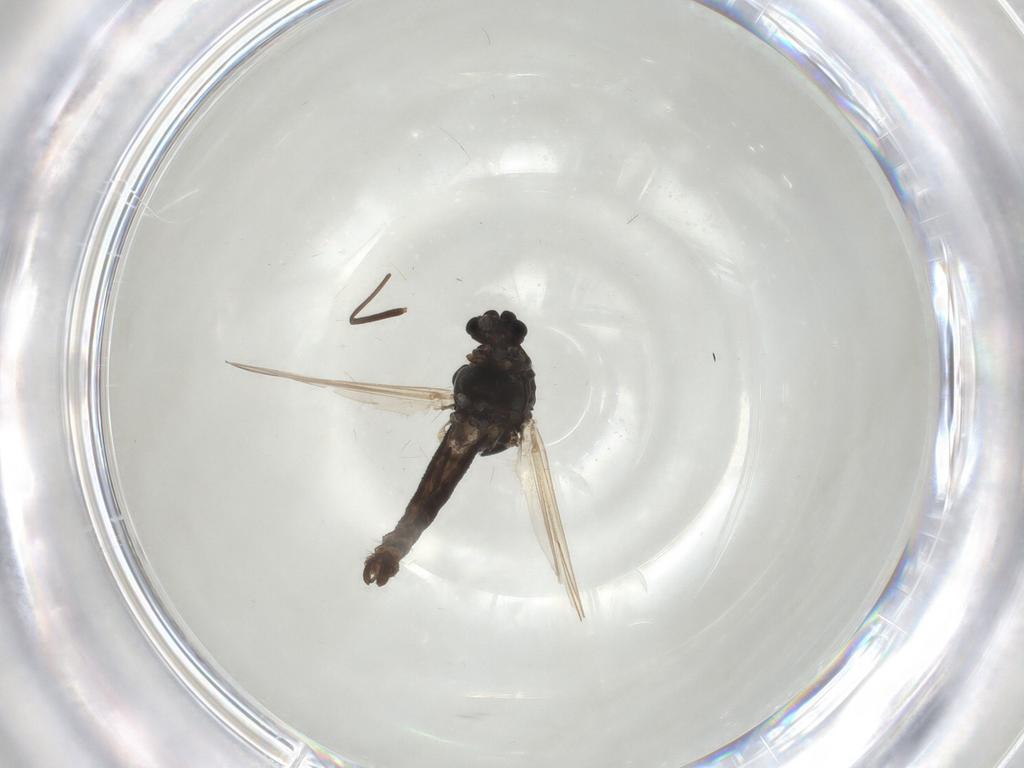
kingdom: Animalia
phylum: Arthropoda
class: Insecta
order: Diptera
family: Chironomidae
